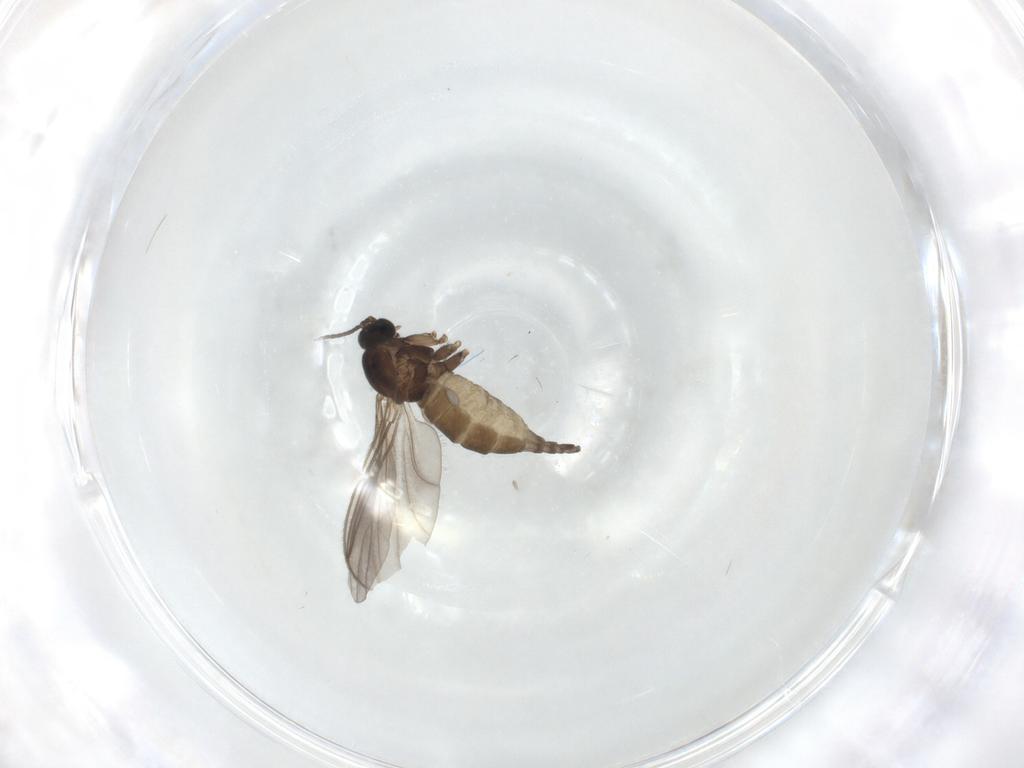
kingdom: Animalia
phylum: Arthropoda
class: Insecta
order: Diptera
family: Sciaridae
